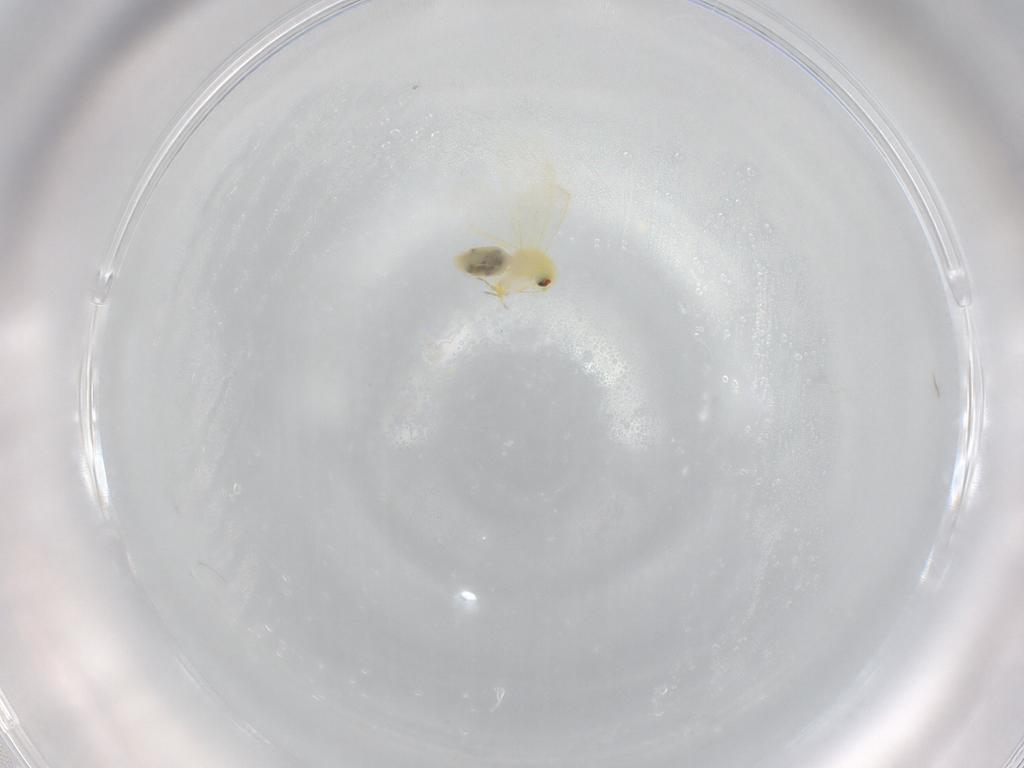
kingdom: Animalia
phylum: Arthropoda
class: Insecta
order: Hemiptera
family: Aleyrodidae
